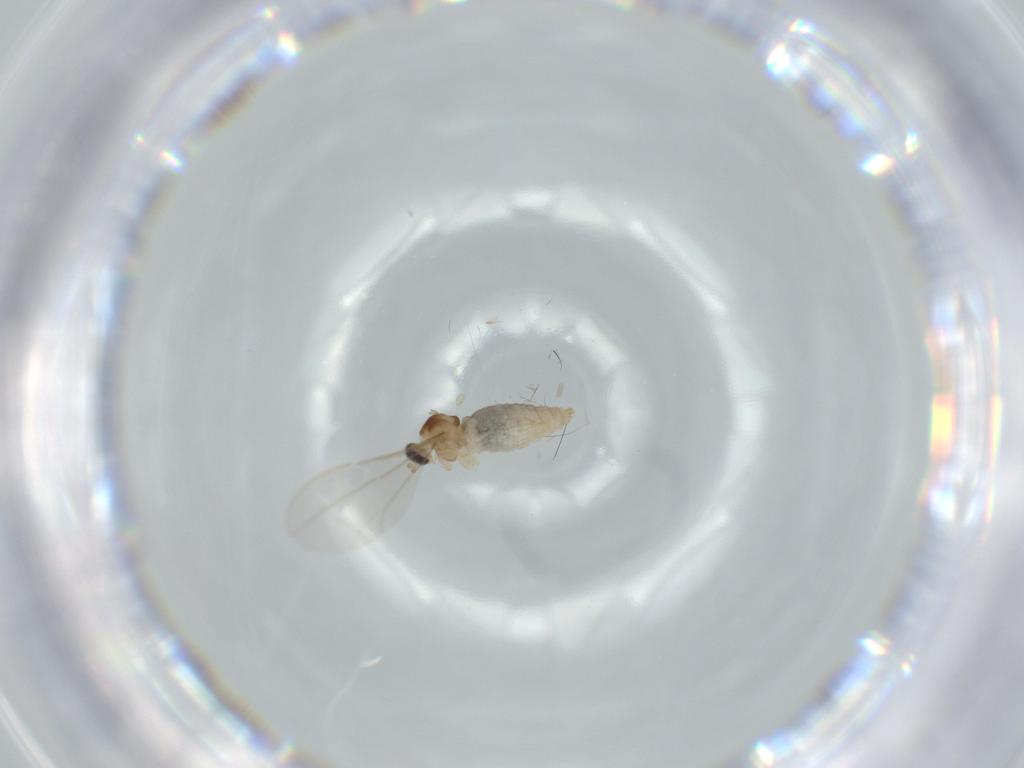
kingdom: Animalia
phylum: Arthropoda
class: Insecta
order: Diptera
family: Cecidomyiidae
